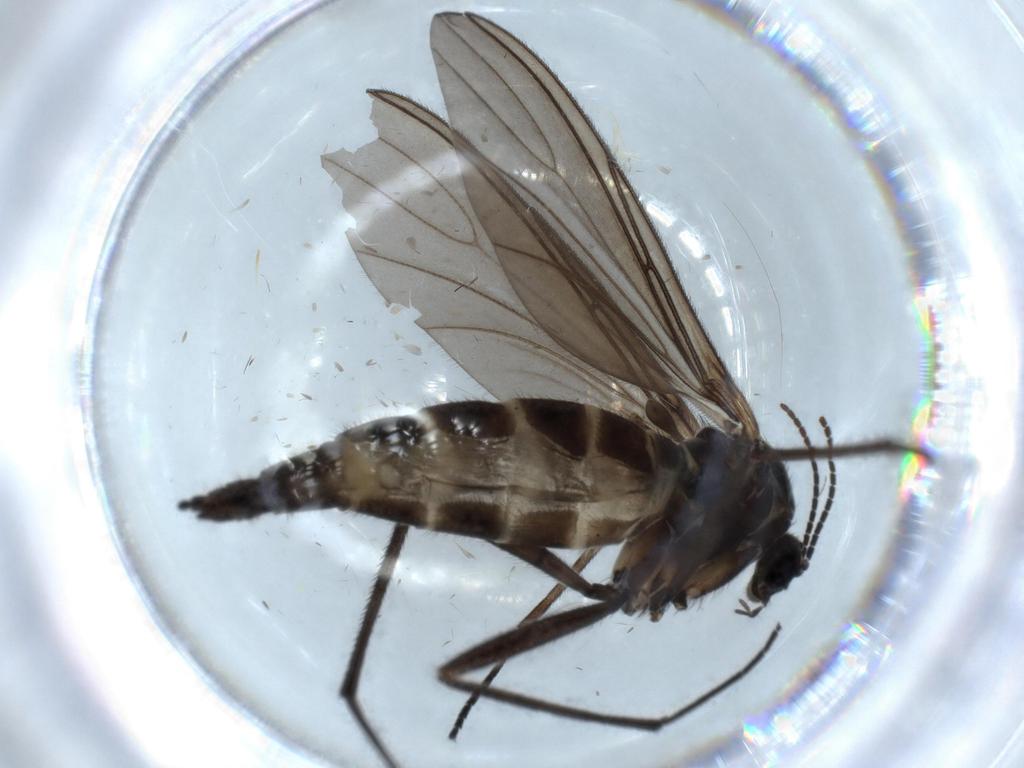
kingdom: Animalia
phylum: Arthropoda
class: Insecta
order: Diptera
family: Sciaridae
